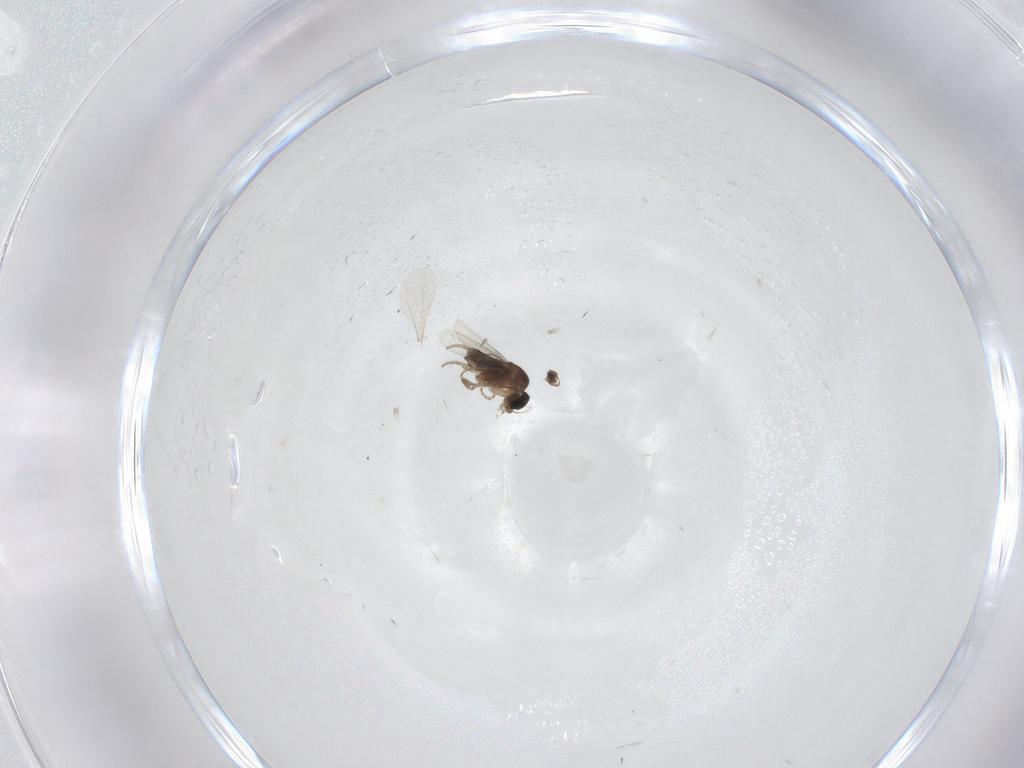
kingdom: Animalia
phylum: Arthropoda
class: Insecta
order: Diptera
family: Phoridae
